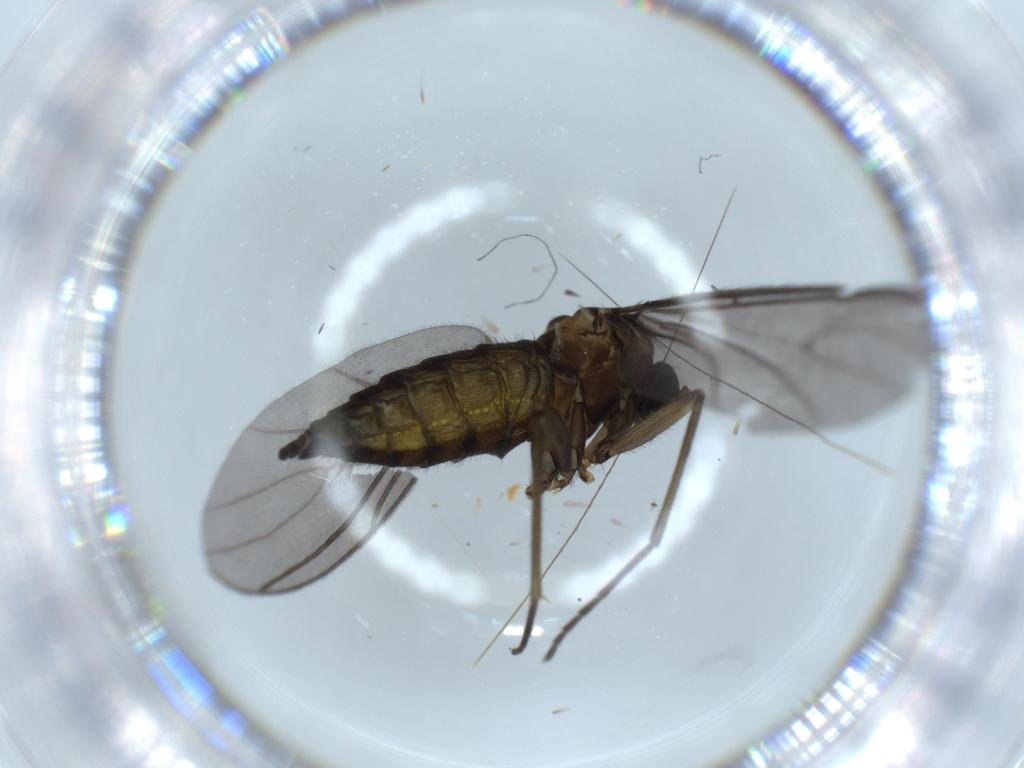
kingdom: Animalia
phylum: Arthropoda
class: Insecta
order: Diptera
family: Sciaridae
